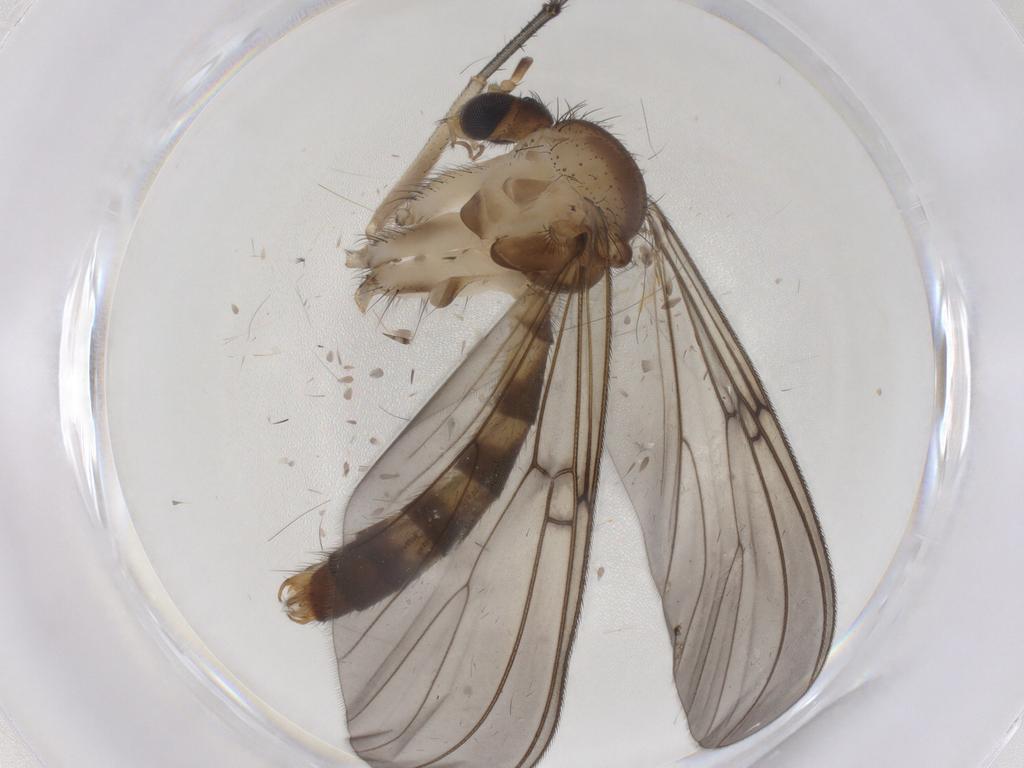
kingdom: Animalia
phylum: Arthropoda
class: Insecta
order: Diptera
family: Mycetophilidae
